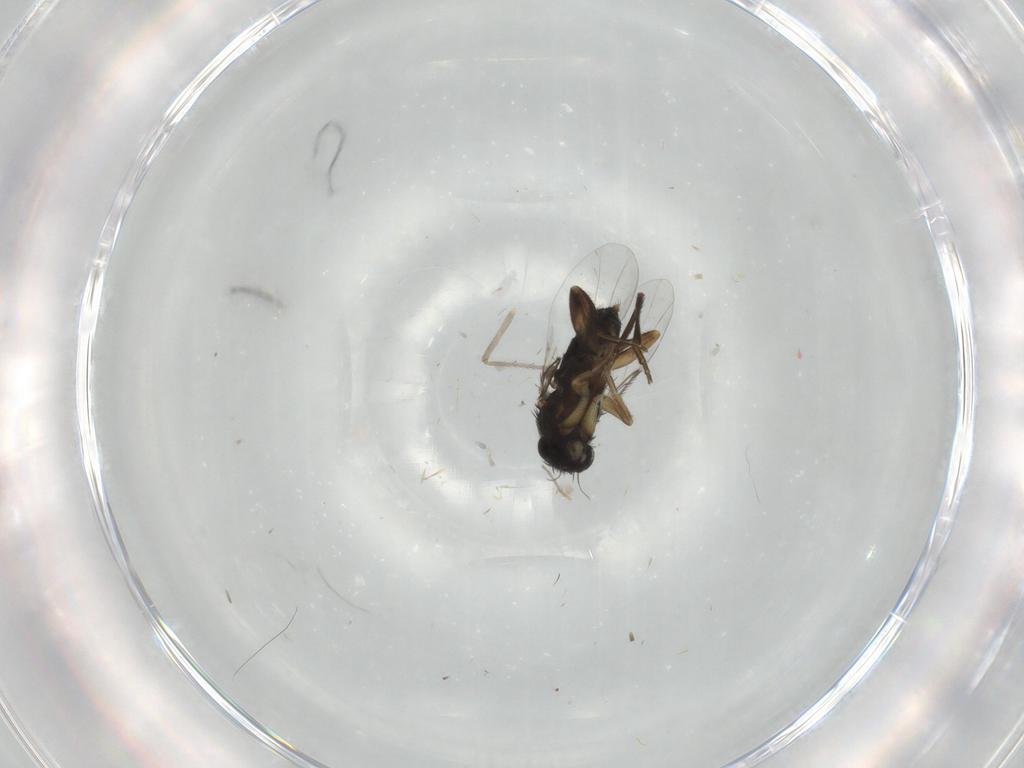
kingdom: Animalia
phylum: Arthropoda
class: Insecta
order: Diptera
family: Phoridae
